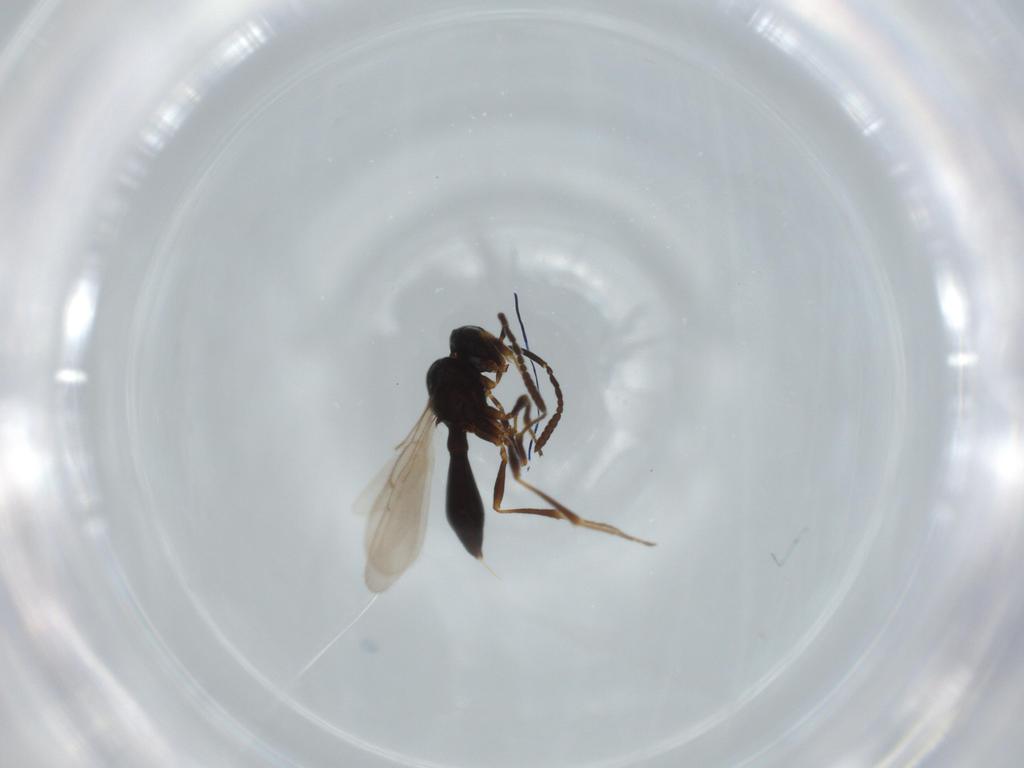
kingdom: Animalia
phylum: Arthropoda
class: Insecta
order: Hymenoptera
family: Scelionidae
